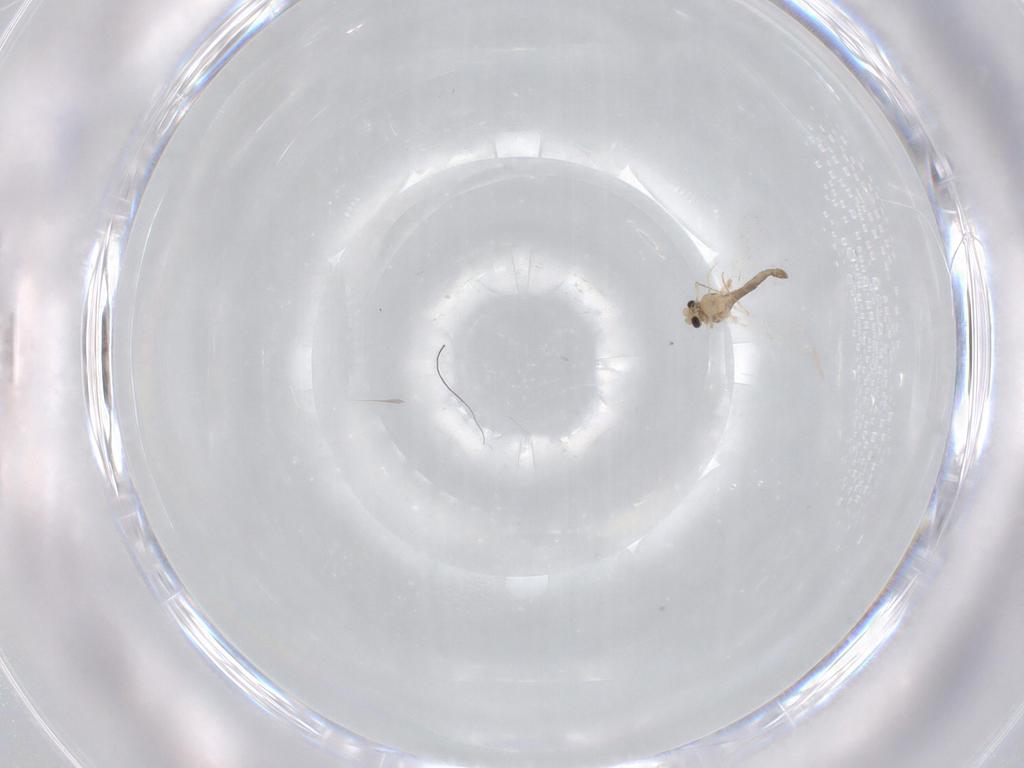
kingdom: Animalia
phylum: Arthropoda
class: Insecta
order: Diptera
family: Chironomidae
